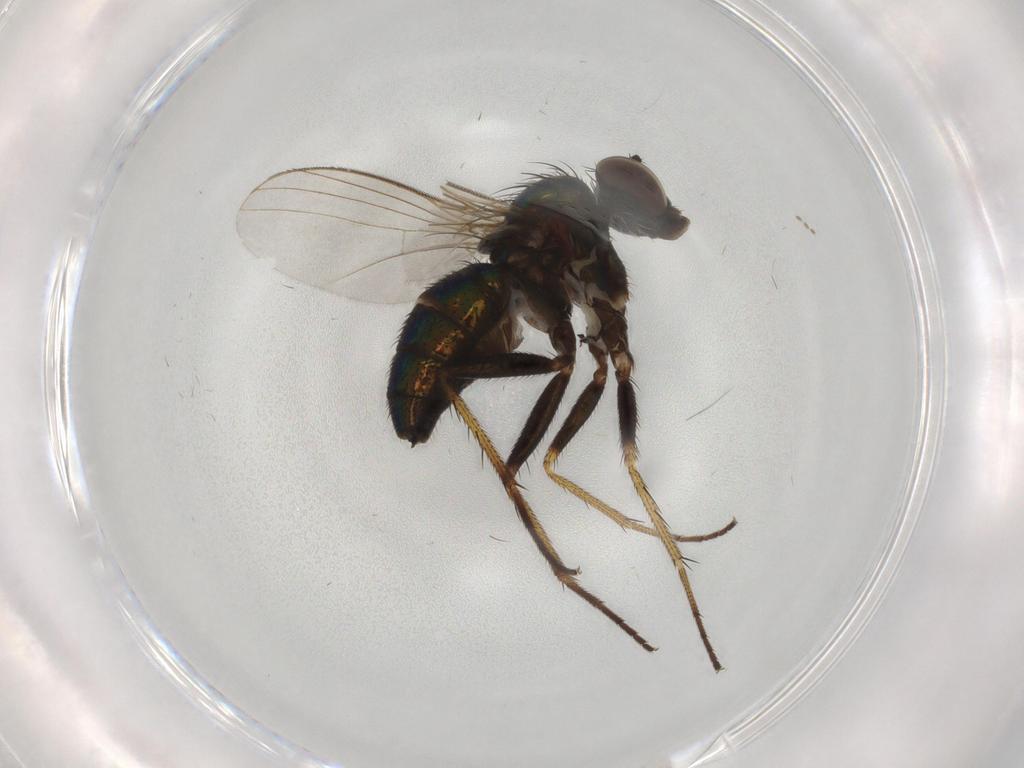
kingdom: Animalia
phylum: Arthropoda
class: Insecta
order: Diptera
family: Dolichopodidae
